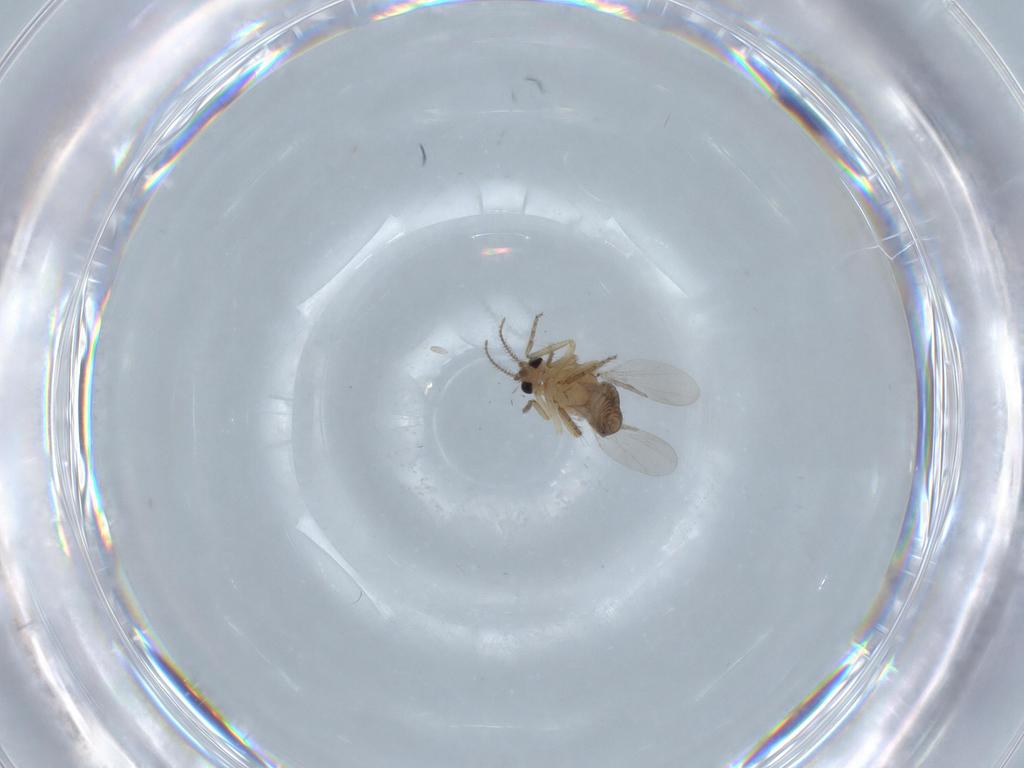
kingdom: Animalia
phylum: Arthropoda
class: Insecta
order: Diptera
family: Ceratopogonidae
